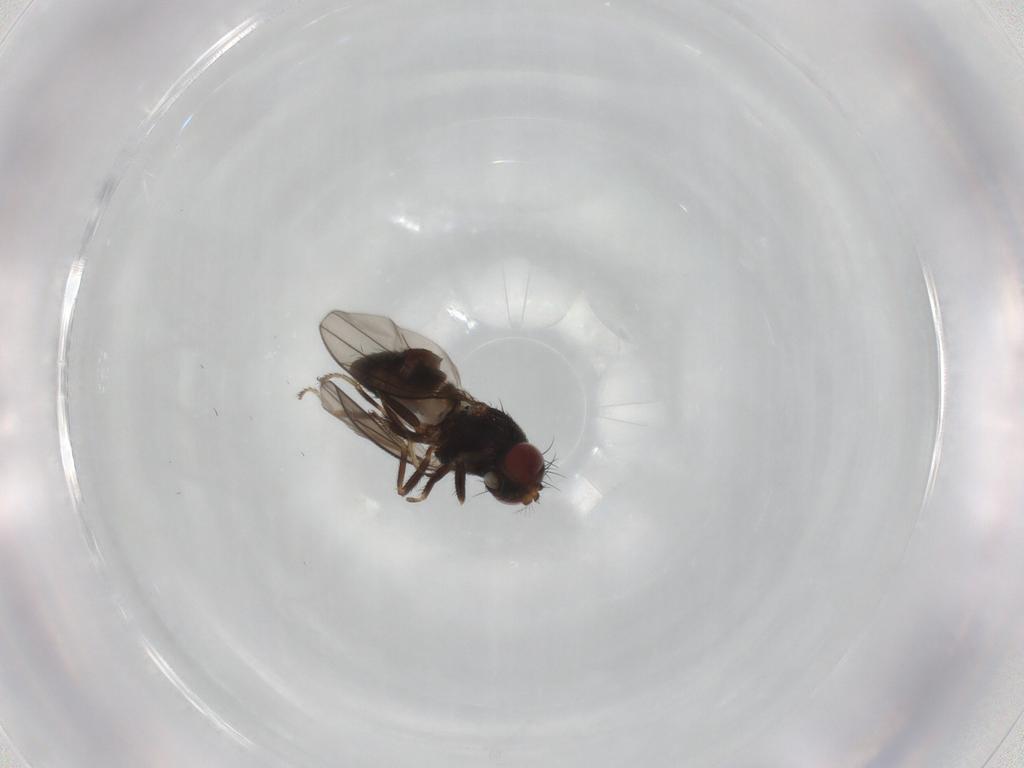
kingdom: Animalia
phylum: Arthropoda
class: Insecta
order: Diptera
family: Ephydridae
